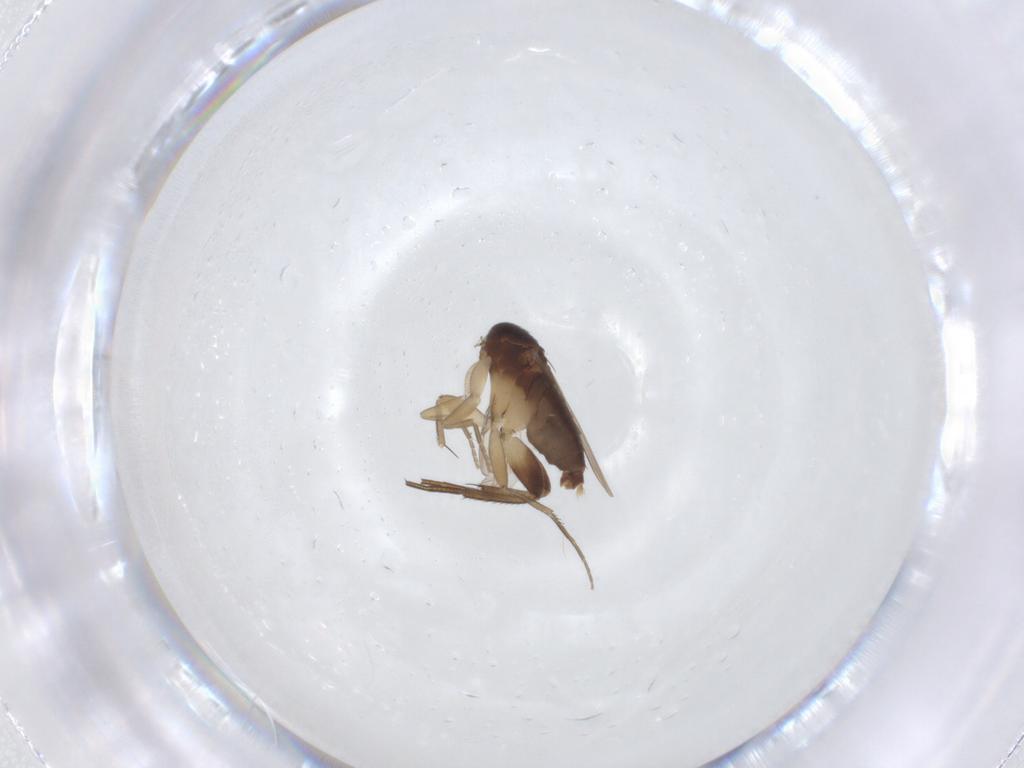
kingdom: Animalia
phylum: Arthropoda
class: Insecta
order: Diptera
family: Phoridae
